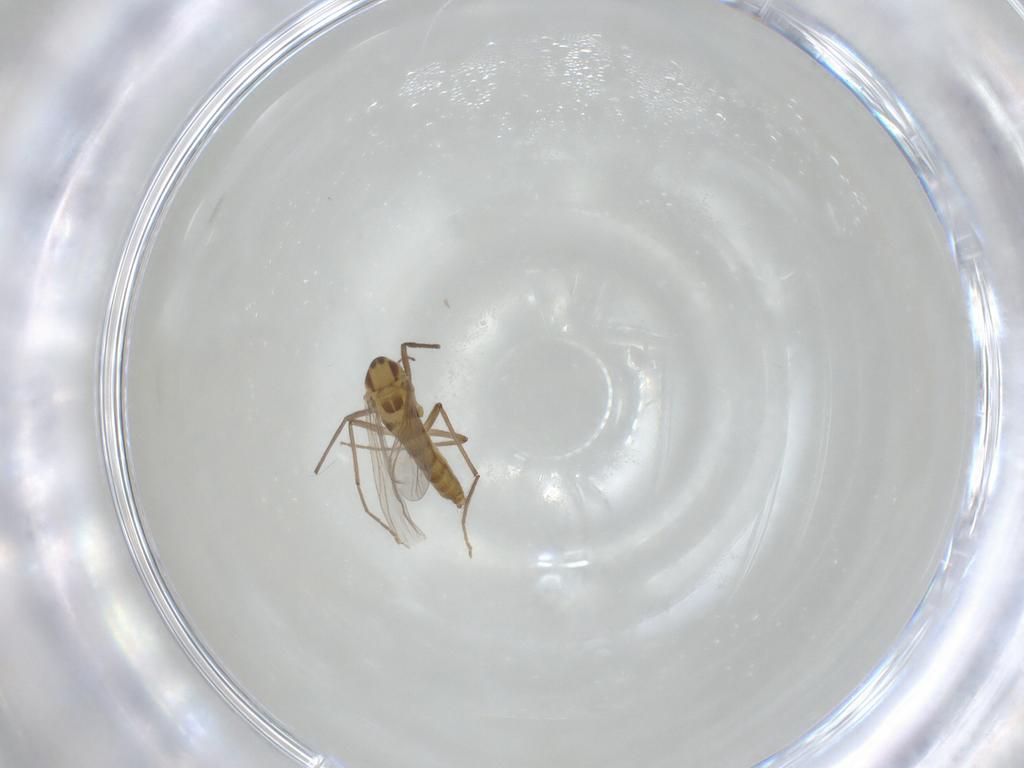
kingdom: Animalia
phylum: Arthropoda
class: Insecta
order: Diptera
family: Chironomidae
